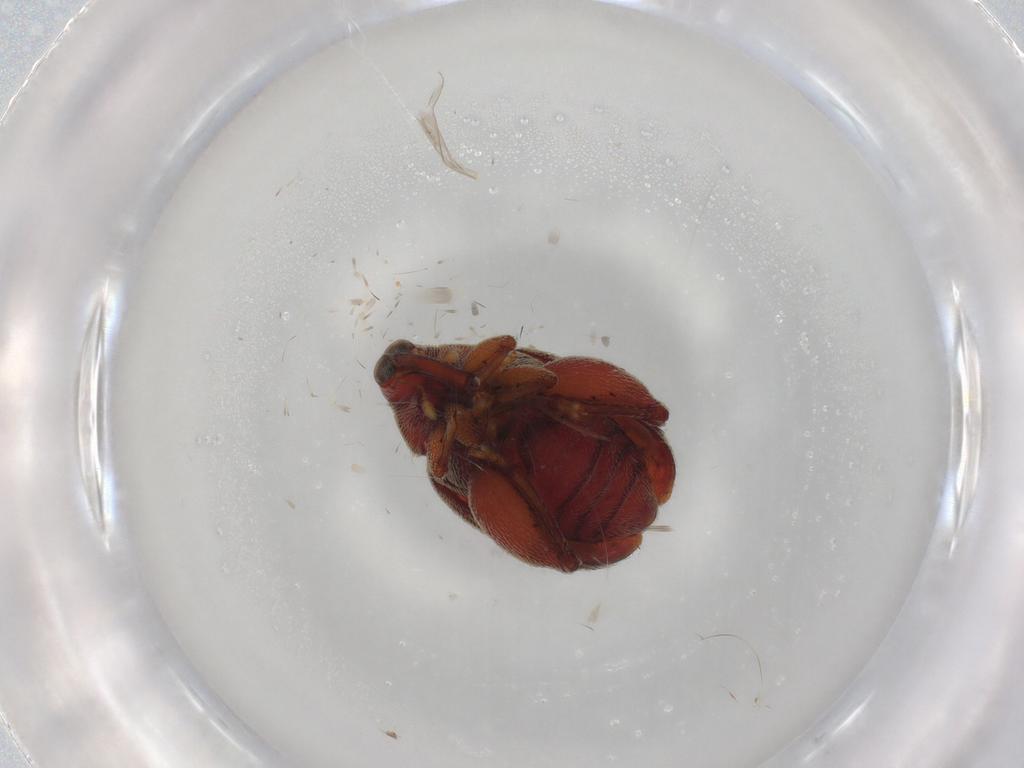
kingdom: Animalia
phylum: Arthropoda
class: Insecta
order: Coleoptera
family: Curculionidae
